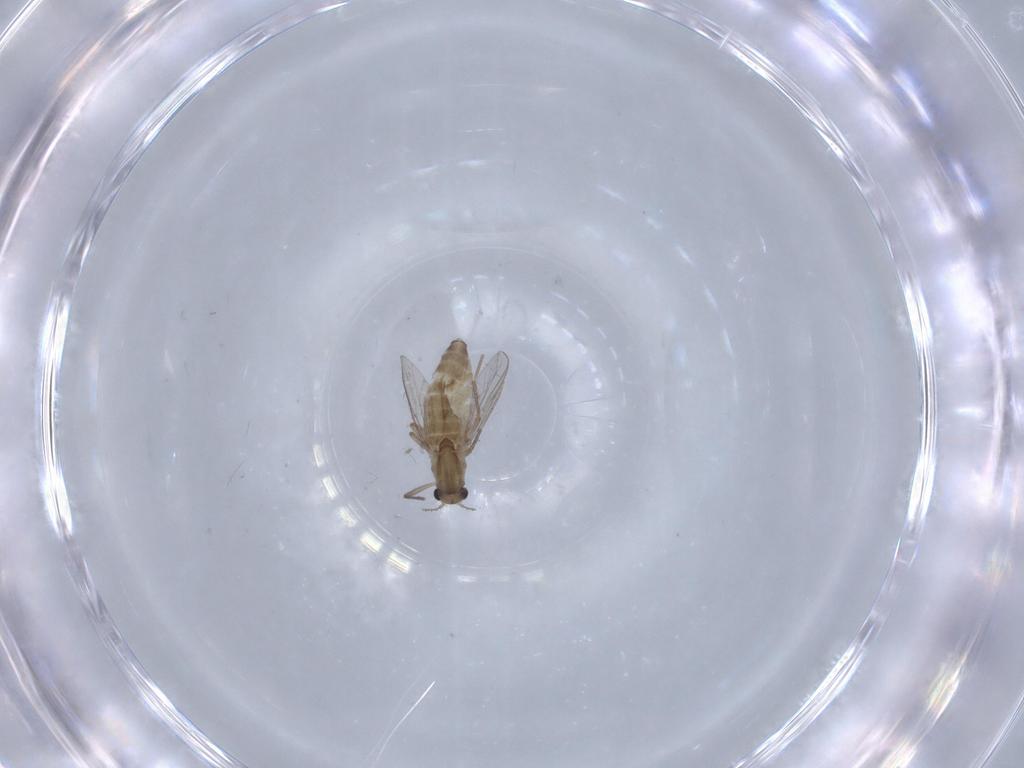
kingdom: Animalia
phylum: Arthropoda
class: Insecta
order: Diptera
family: Chironomidae
